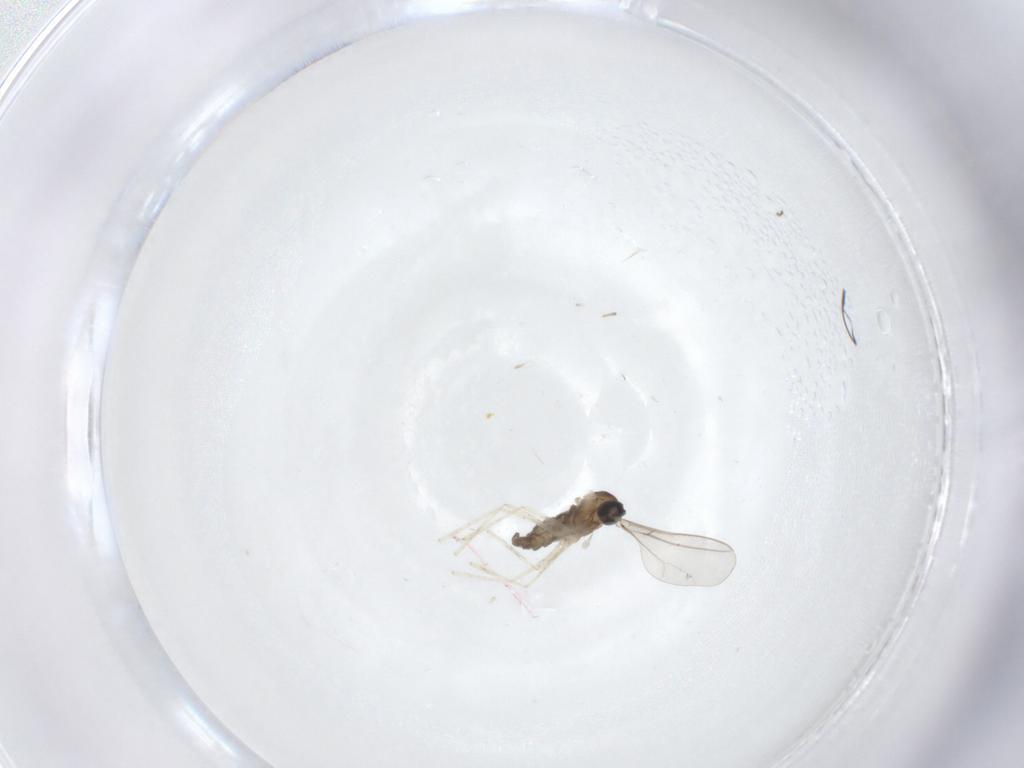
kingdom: Animalia
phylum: Arthropoda
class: Insecta
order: Diptera
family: Cecidomyiidae
